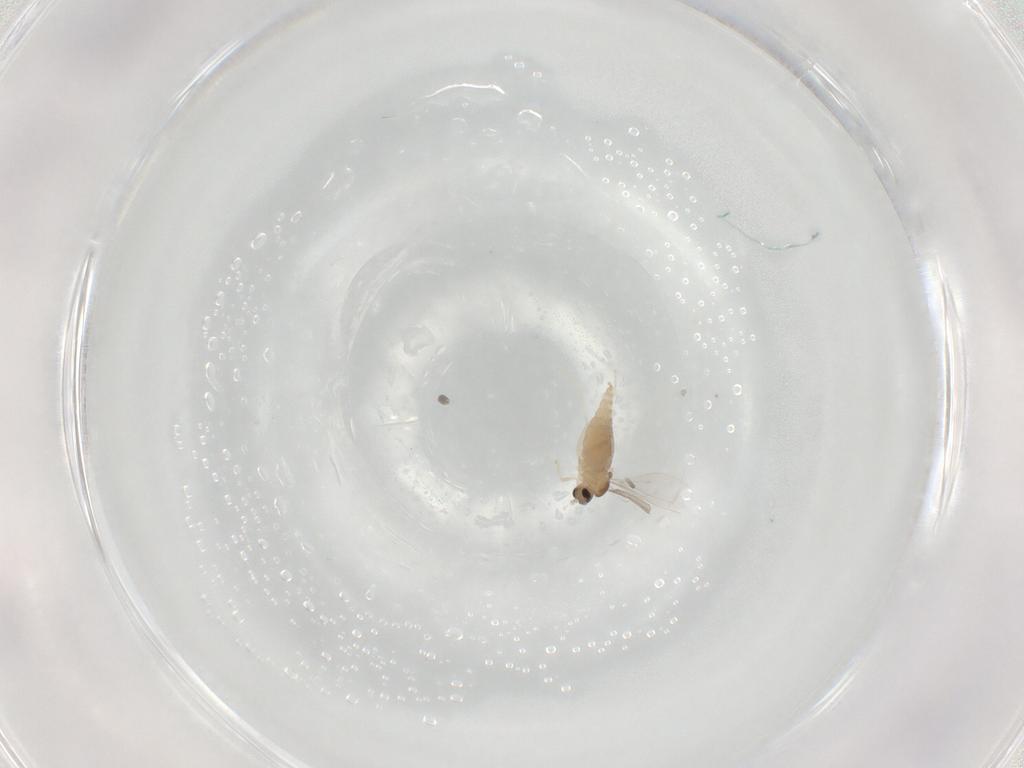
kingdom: Animalia
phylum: Arthropoda
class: Insecta
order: Diptera
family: Cecidomyiidae
